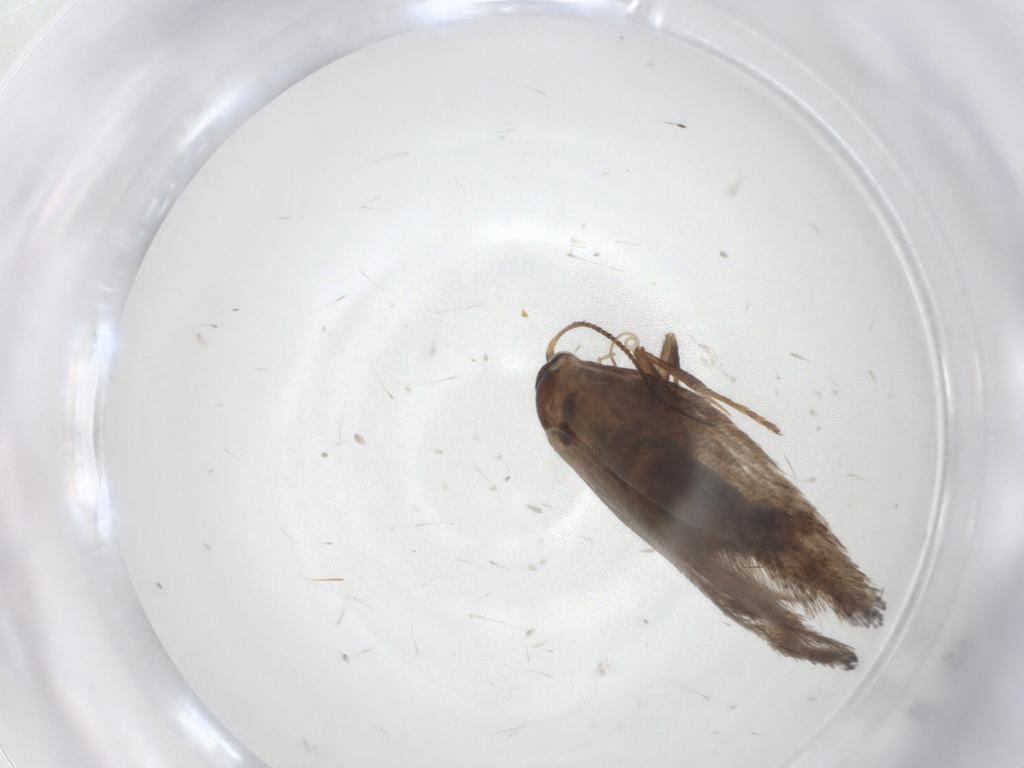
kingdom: Animalia
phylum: Arthropoda
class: Insecta
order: Lepidoptera
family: Nepticulidae
